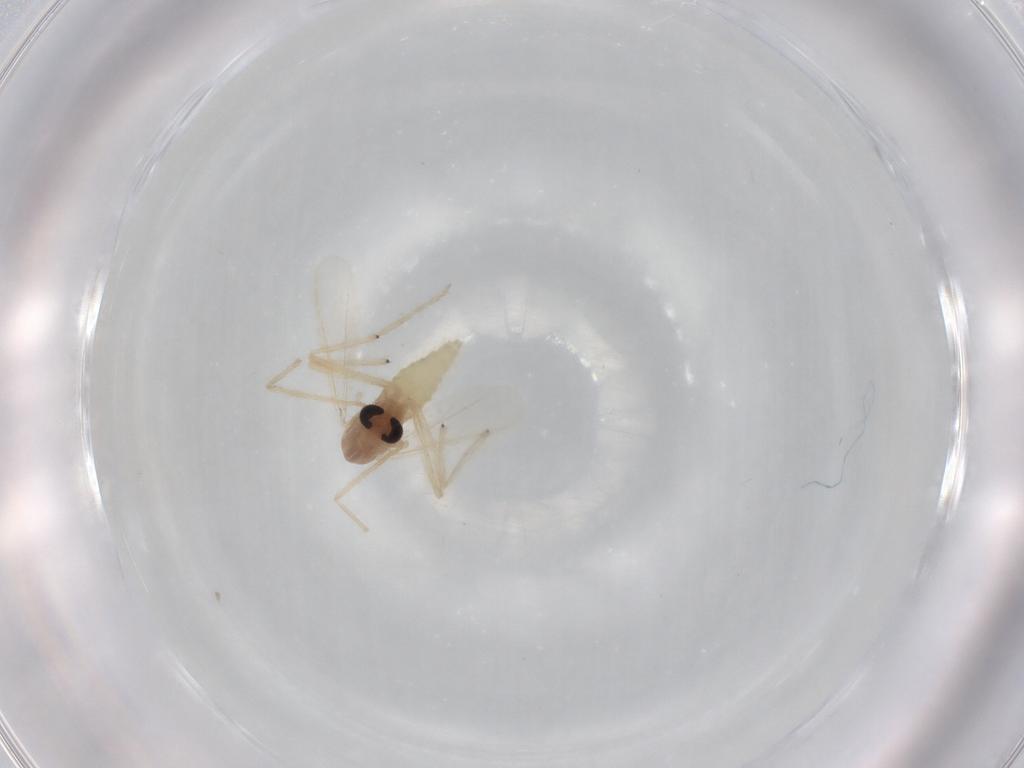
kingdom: Animalia
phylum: Arthropoda
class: Insecta
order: Diptera
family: Chironomidae
